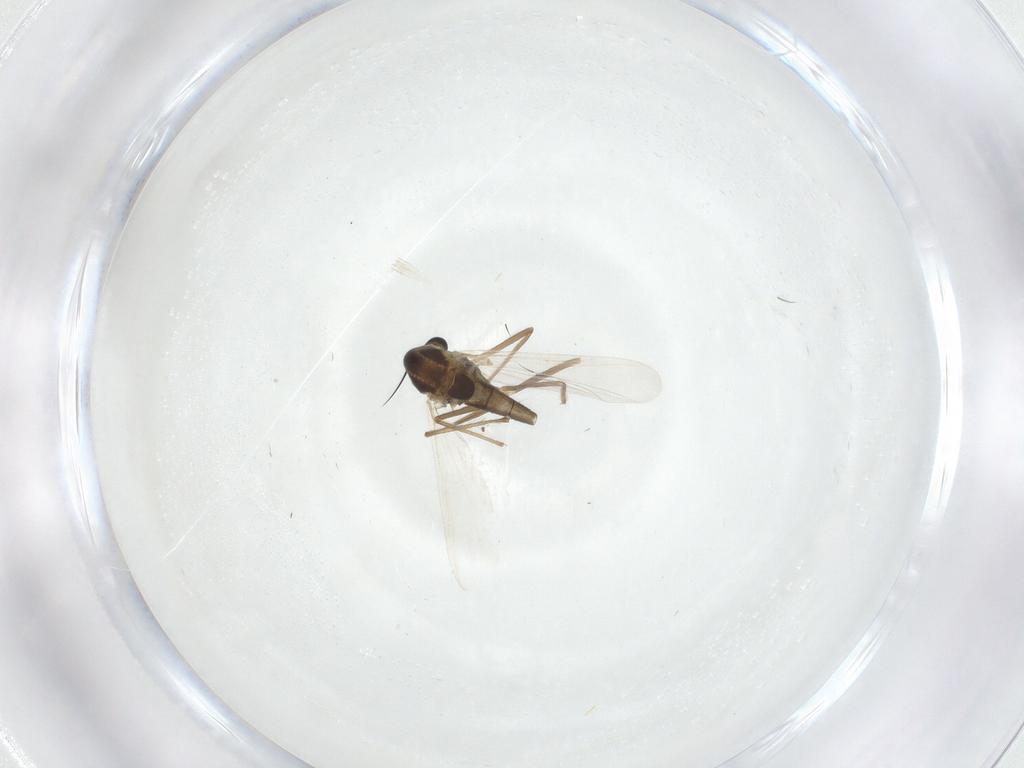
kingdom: Animalia
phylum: Arthropoda
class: Insecta
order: Diptera
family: Chironomidae
